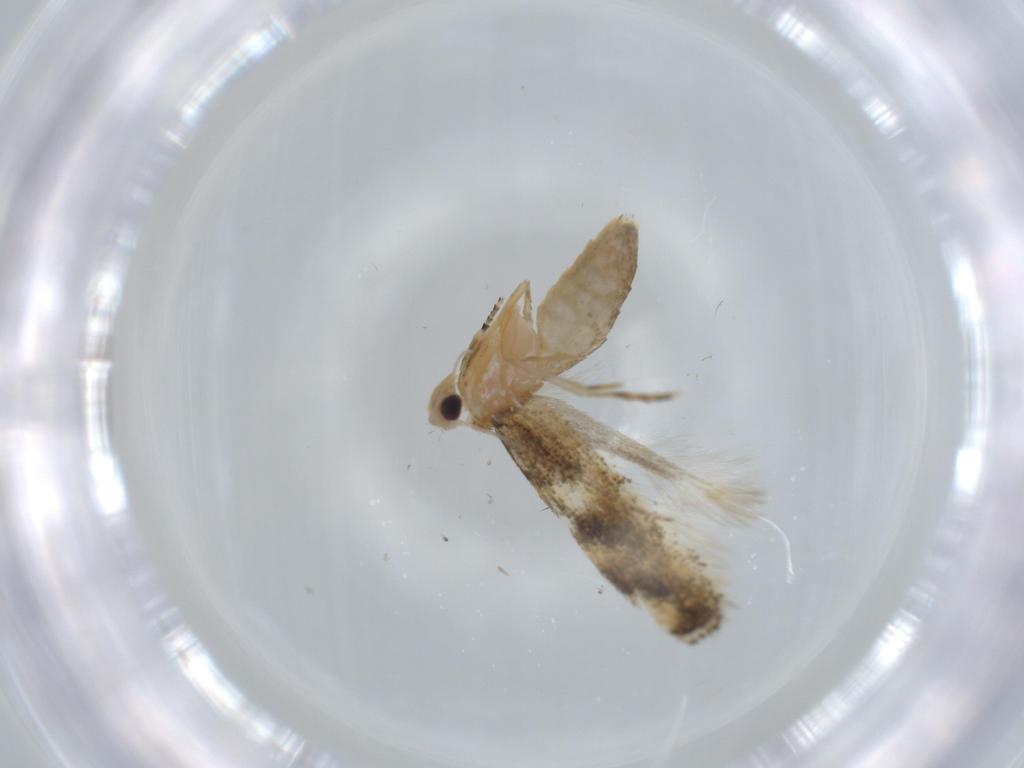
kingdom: Animalia
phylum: Arthropoda
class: Insecta
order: Lepidoptera
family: Bucculatricidae
